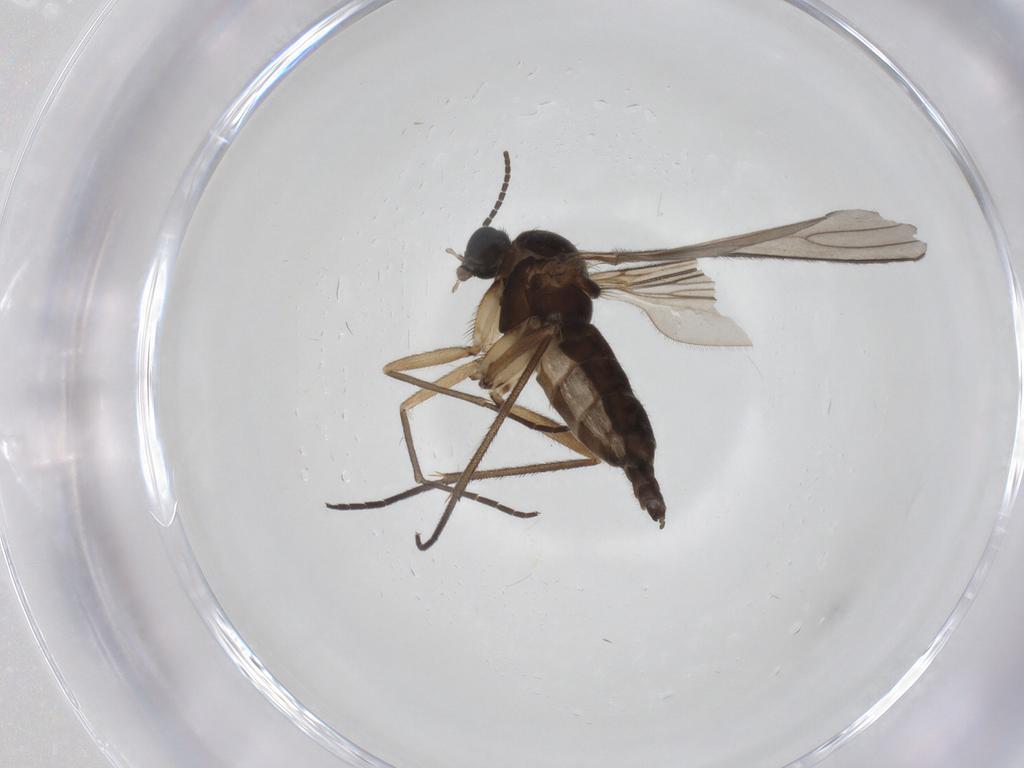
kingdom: Animalia
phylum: Arthropoda
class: Insecta
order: Diptera
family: Sciaridae
